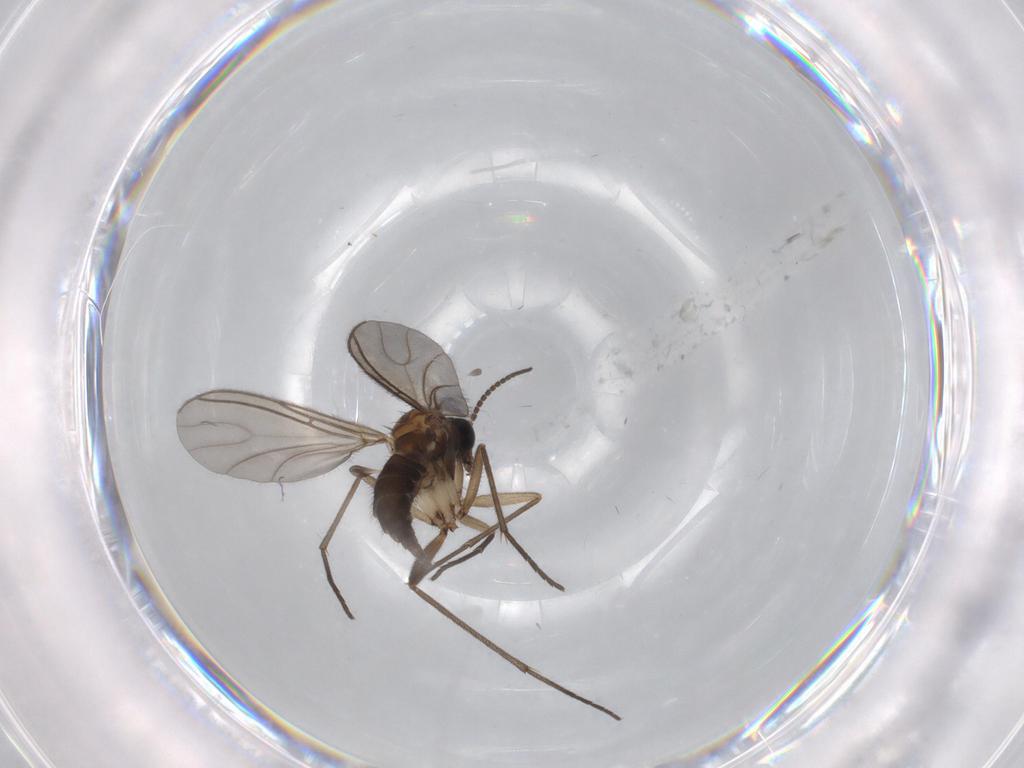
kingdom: Animalia
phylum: Arthropoda
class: Insecta
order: Diptera
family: Sciaridae
